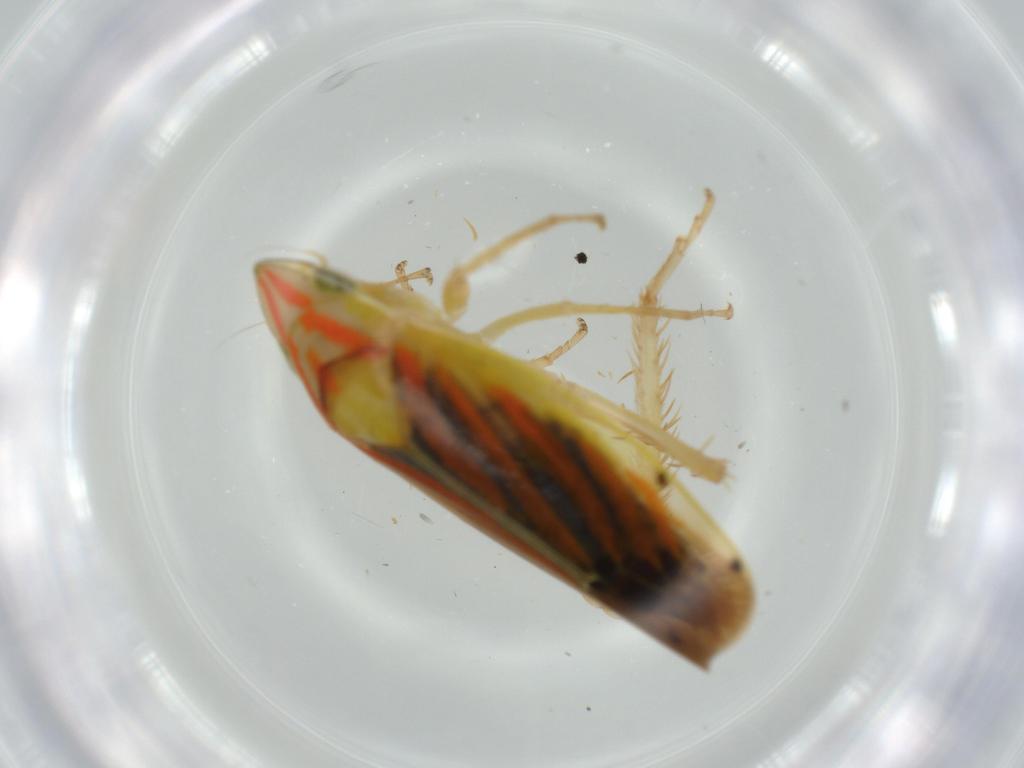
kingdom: Animalia
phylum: Arthropoda
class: Insecta
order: Hemiptera
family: Cicadellidae
